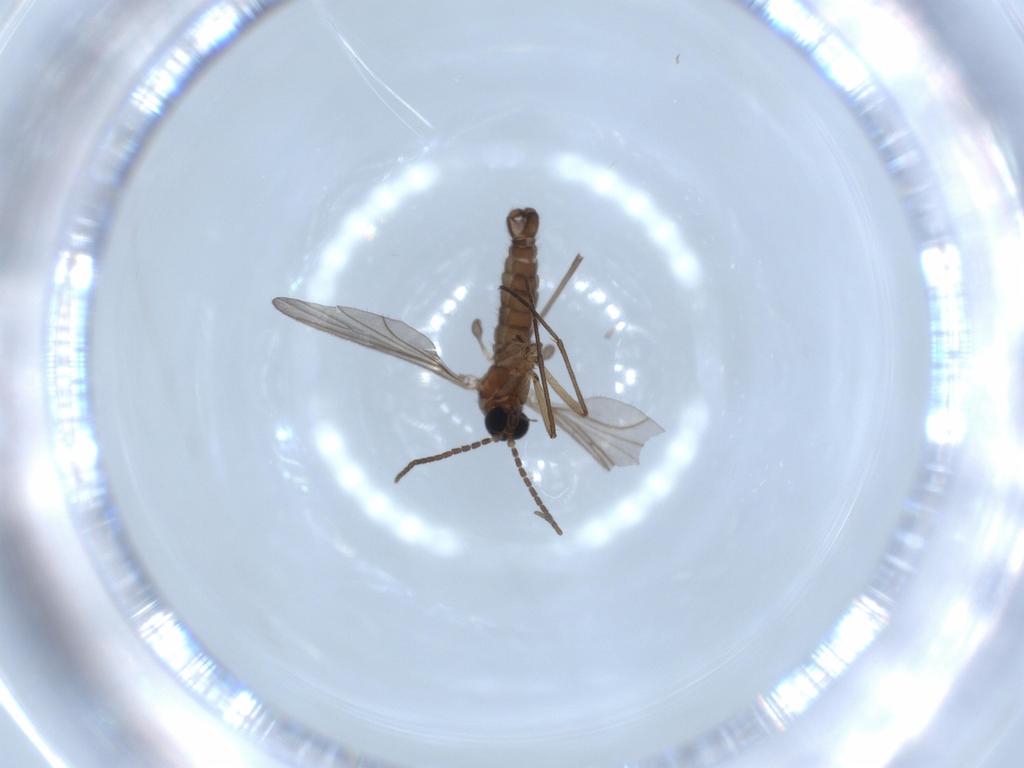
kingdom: Animalia
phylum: Arthropoda
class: Insecta
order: Diptera
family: Sciaridae
